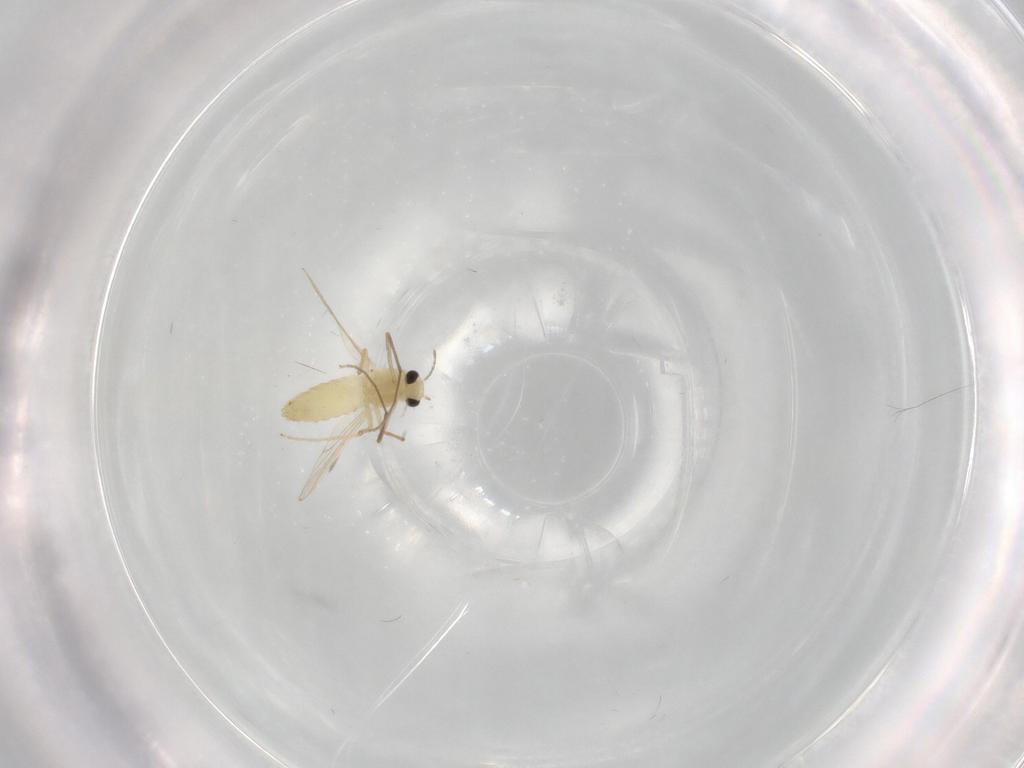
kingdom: Animalia
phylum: Arthropoda
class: Insecta
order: Diptera
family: Chironomidae
